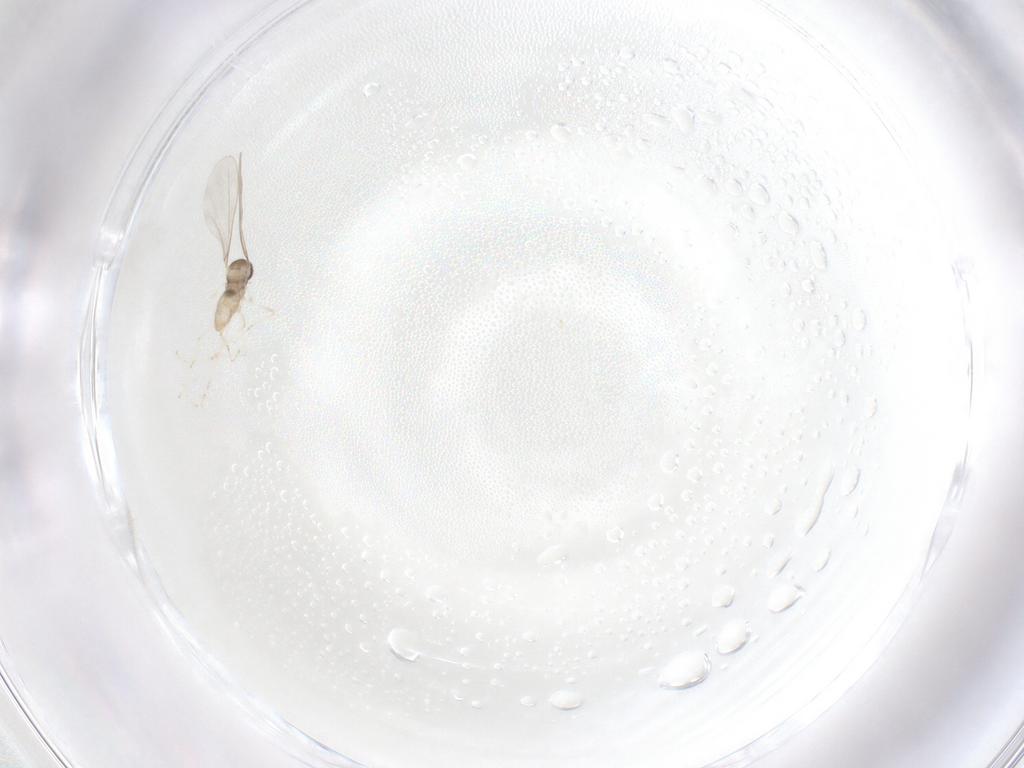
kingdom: Animalia
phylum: Arthropoda
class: Insecta
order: Diptera
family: Cecidomyiidae
